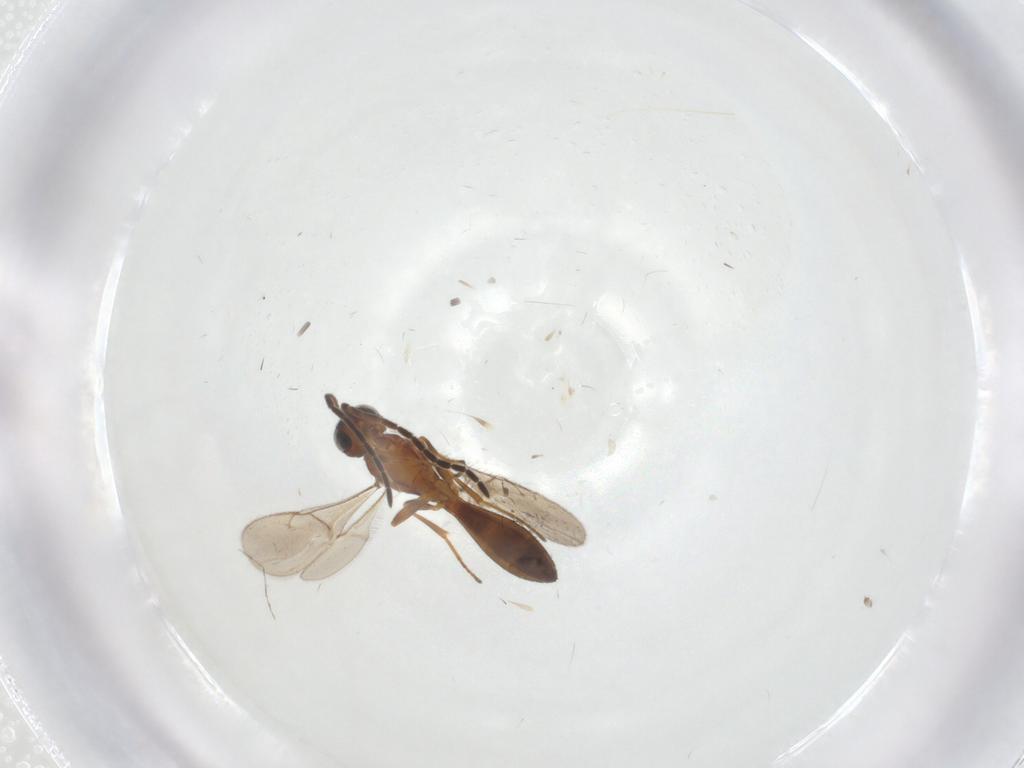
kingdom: Animalia
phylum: Arthropoda
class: Insecta
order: Hymenoptera
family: Scelionidae
